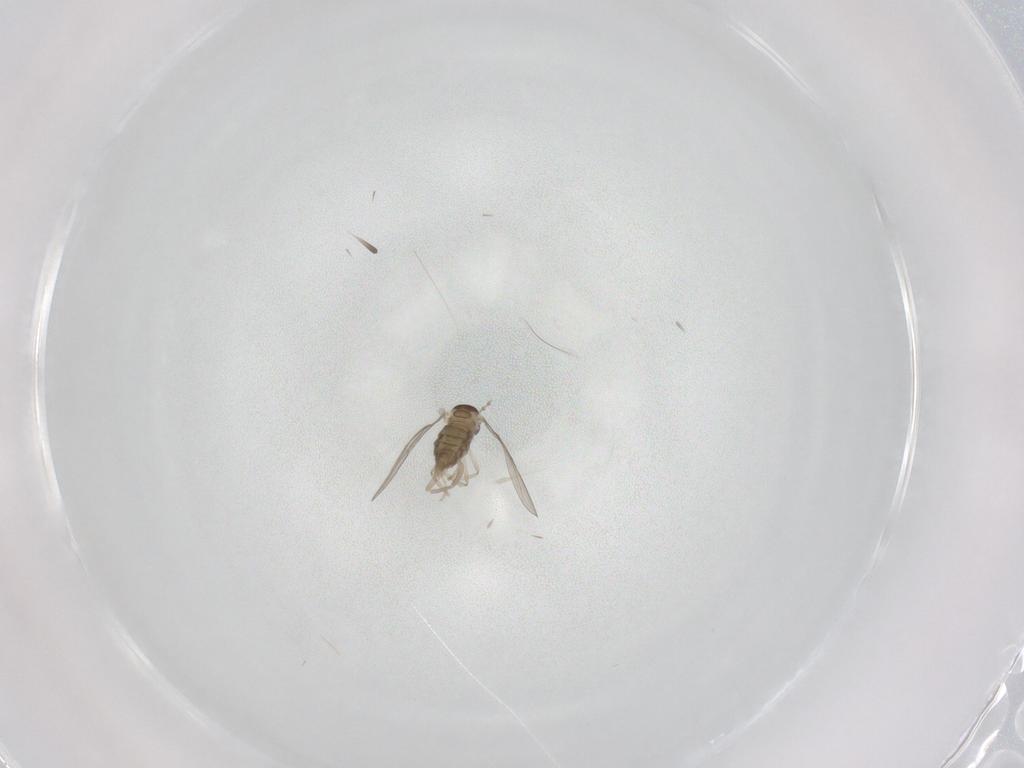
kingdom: Animalia
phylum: Arthropoda
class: Insecta
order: Diptera
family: Cecidomyiidae
